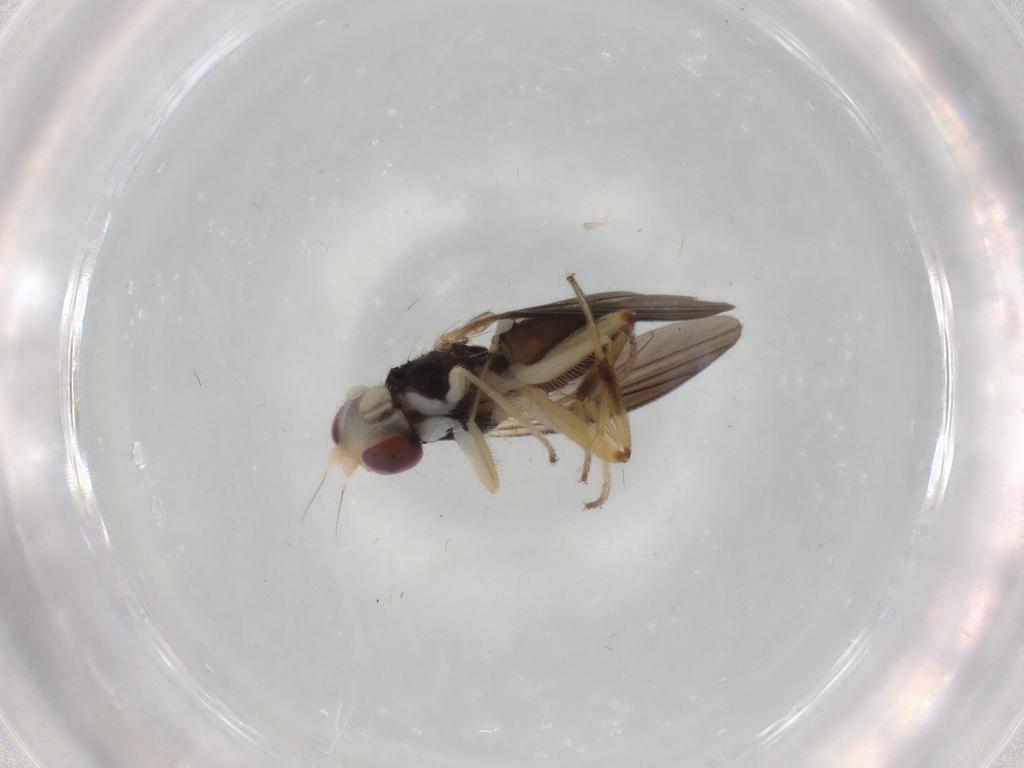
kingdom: Animalia
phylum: Arthropoda
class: Insecta
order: Diptera
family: Clusiidae
